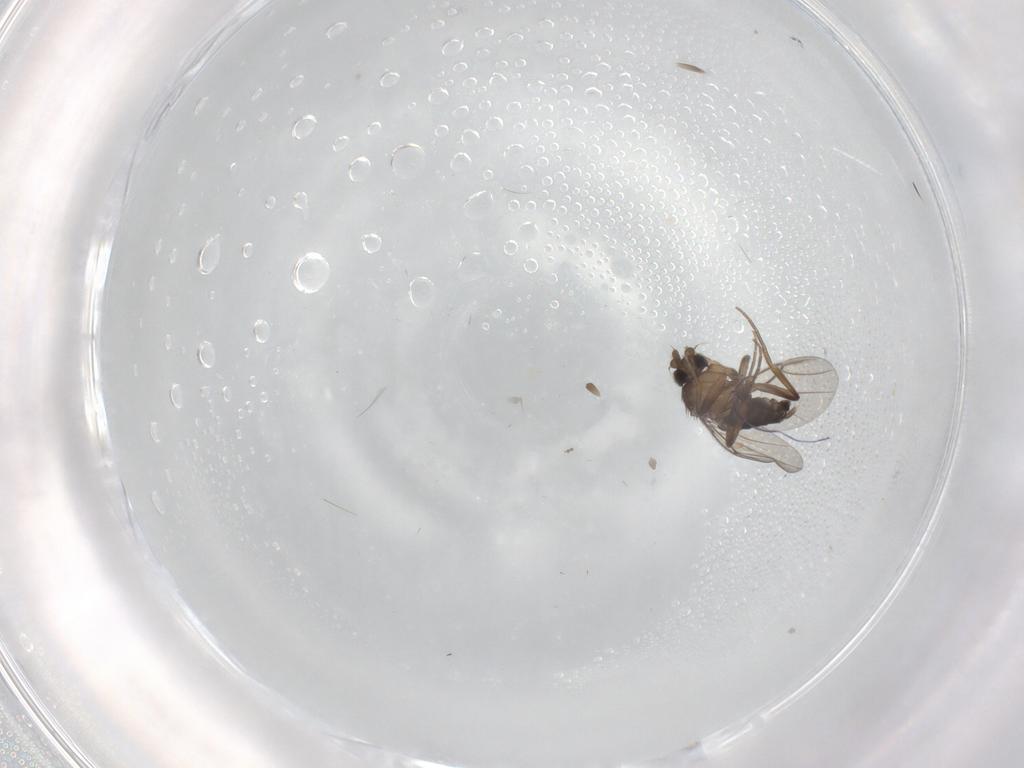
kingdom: Animalia
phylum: Arthropoda
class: Insecta
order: Diptera
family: Phoridae
